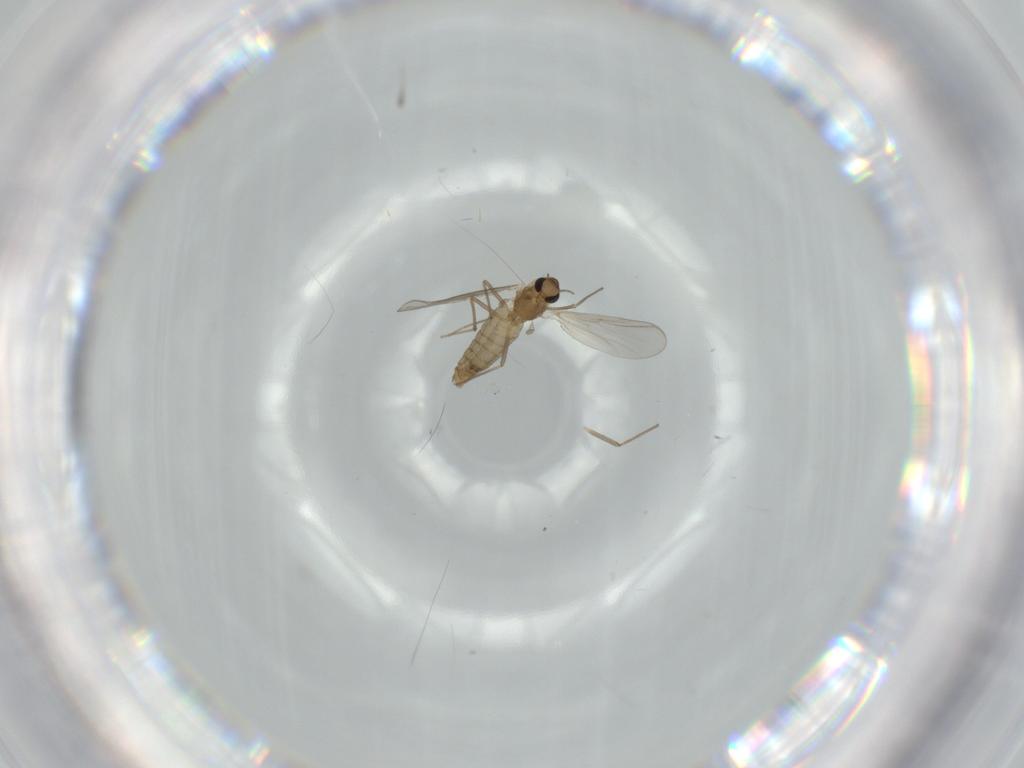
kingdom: Animalia
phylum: Arthropoda
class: Insecta
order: Diptera
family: Chironomidae
